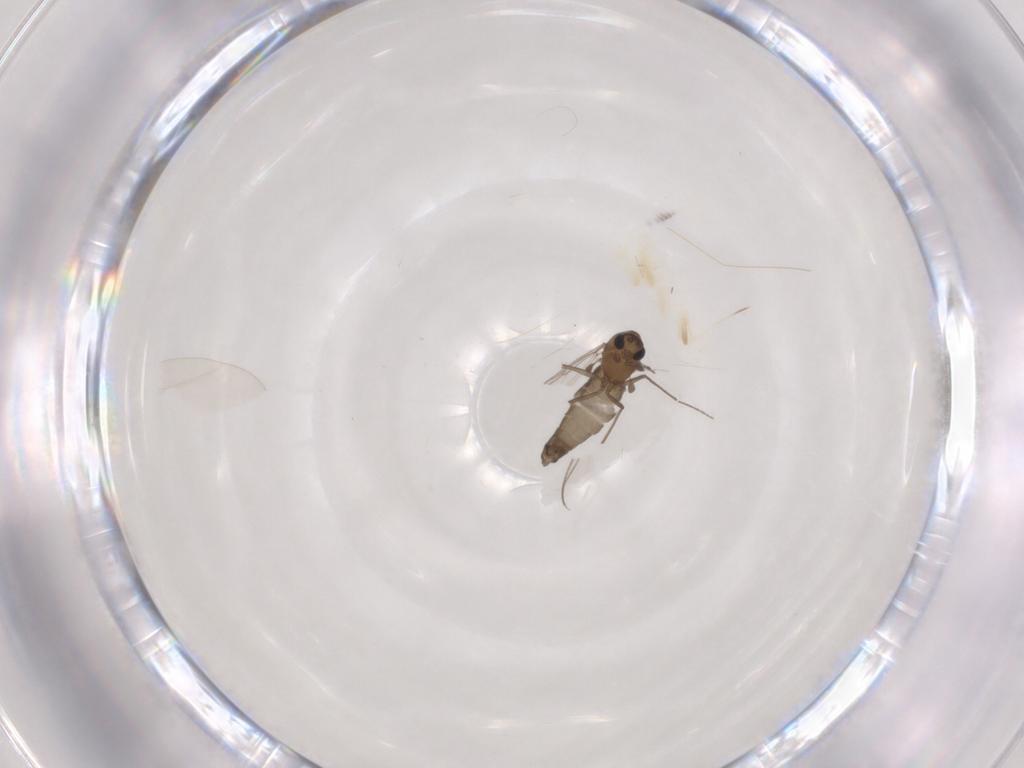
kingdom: Animalia
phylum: Arthropoda
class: Insecta
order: Diptera
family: Chironomidae
